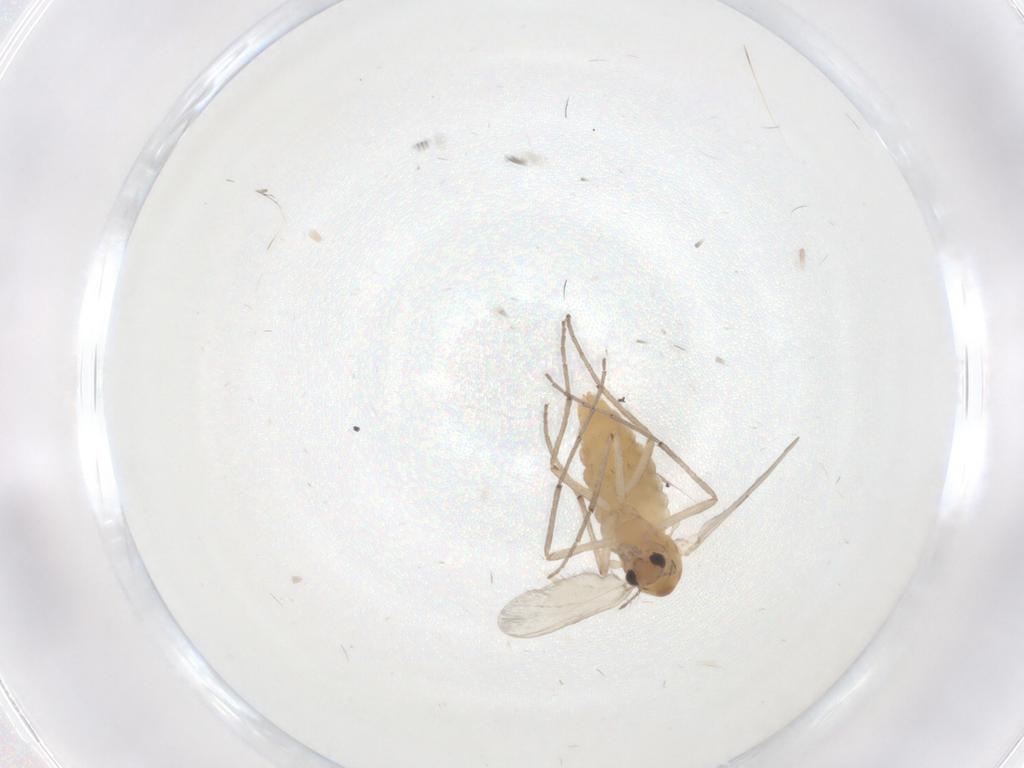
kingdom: Animalia
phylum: Arthropoda
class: Insecta
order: Diptera
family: Chironomidae
